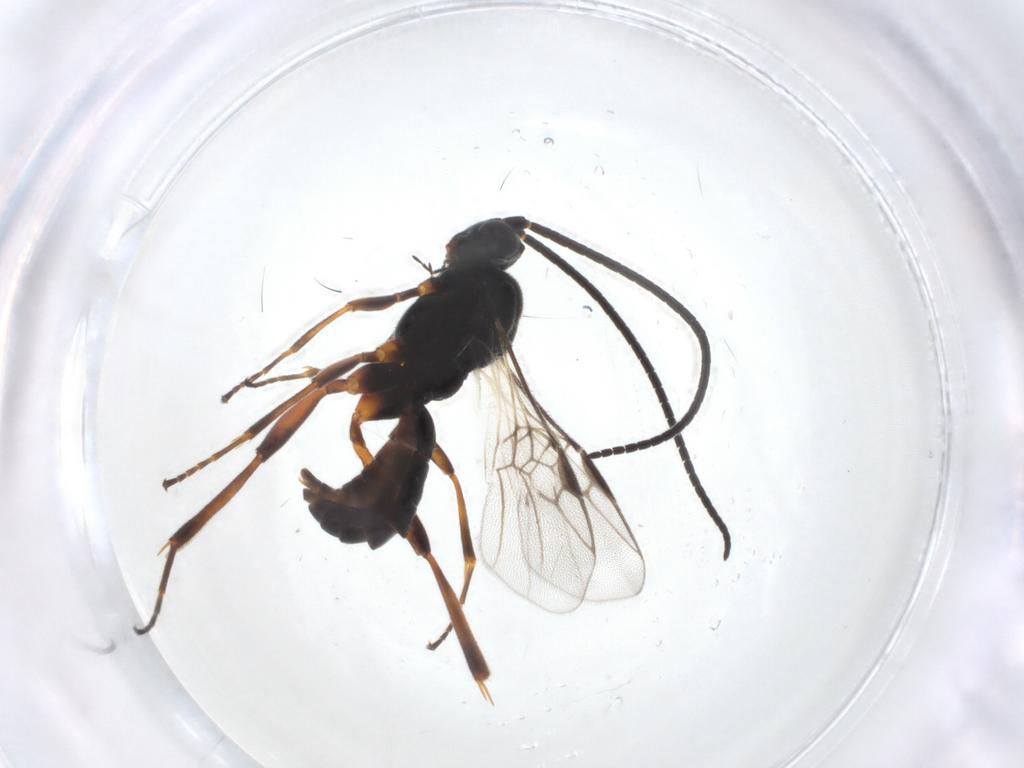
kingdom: Animalia
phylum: Arthropoda
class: Insecta
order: Hymenoptera
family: Braconidae
